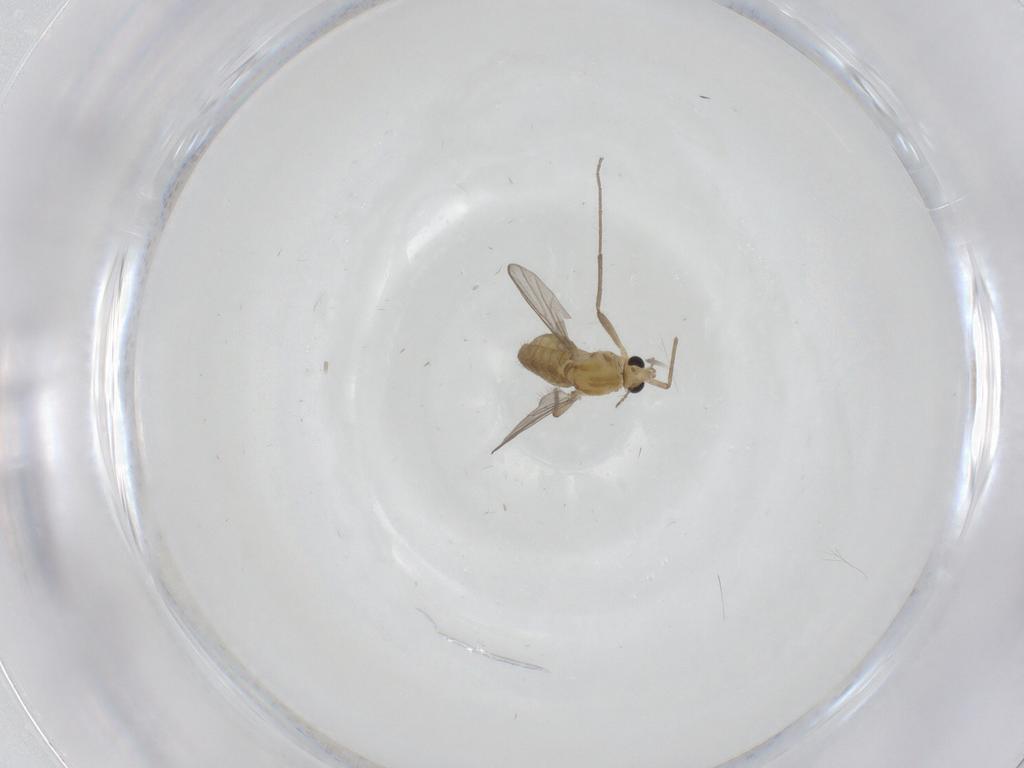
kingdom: Animalia
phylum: Arthropoda
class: Insecta
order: Diptera
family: Chironomidae
